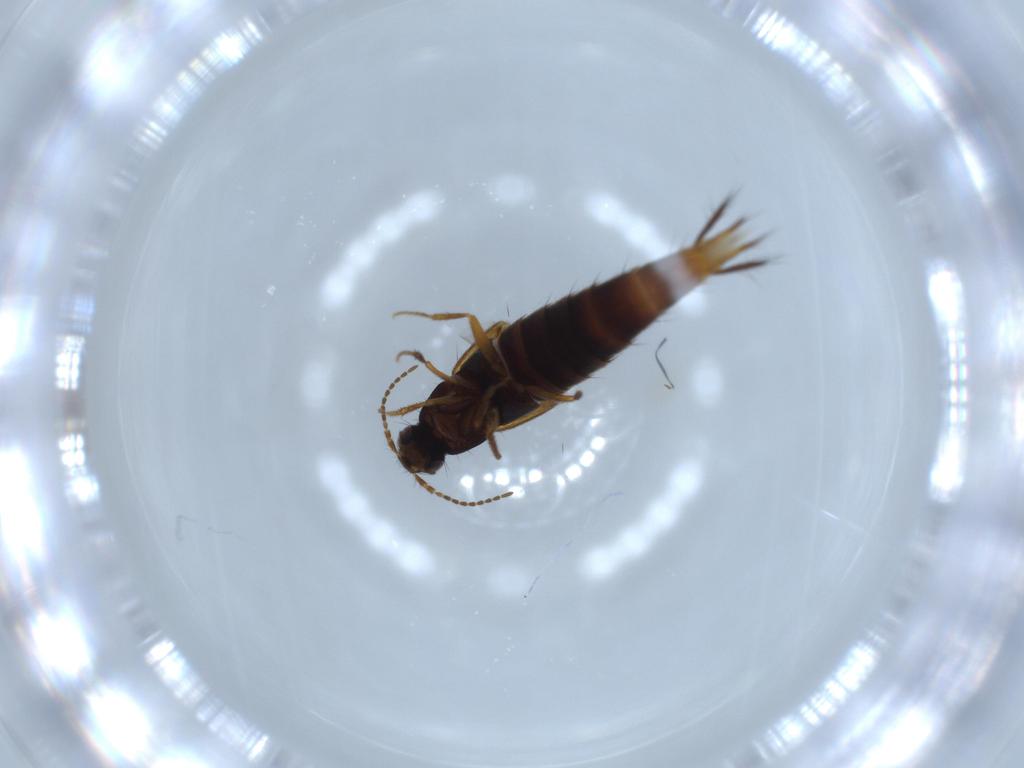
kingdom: Animalia
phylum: Arthropoda
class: Insecta
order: Coleoptera
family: Staphylinidae
